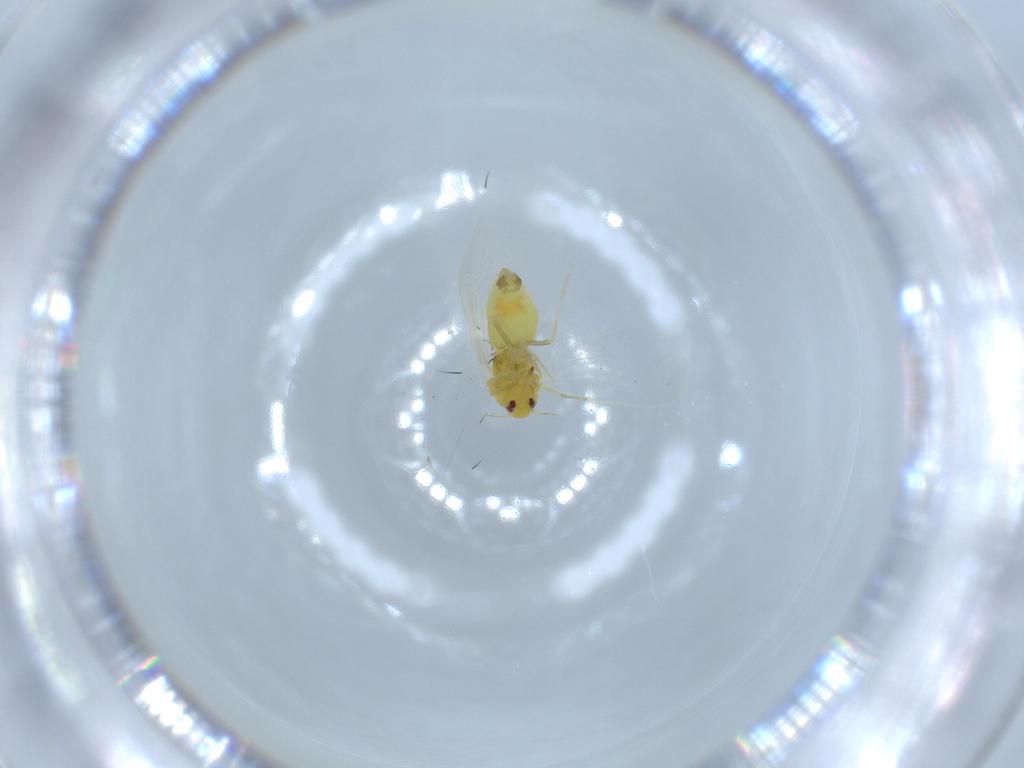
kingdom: Animalia
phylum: Arthropoda
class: Insecta
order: Hemiptera
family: Aleyrodidae
